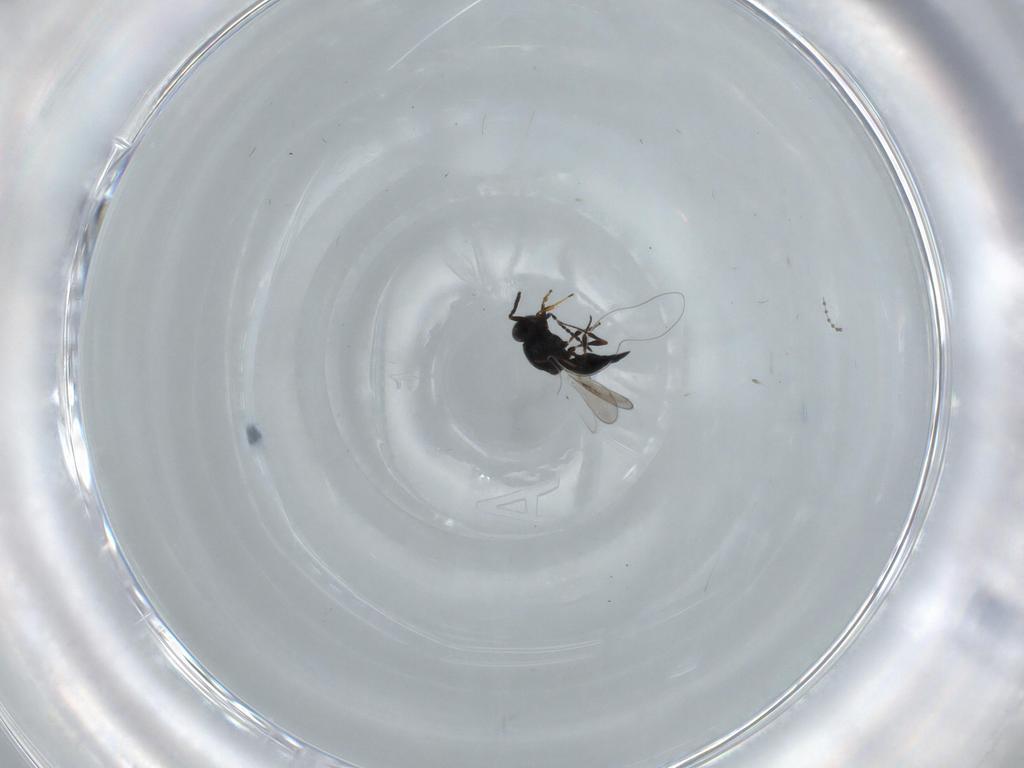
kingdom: Animalia
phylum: Arthropoda
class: Insecta
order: Hymenoptera
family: Platygastridae
